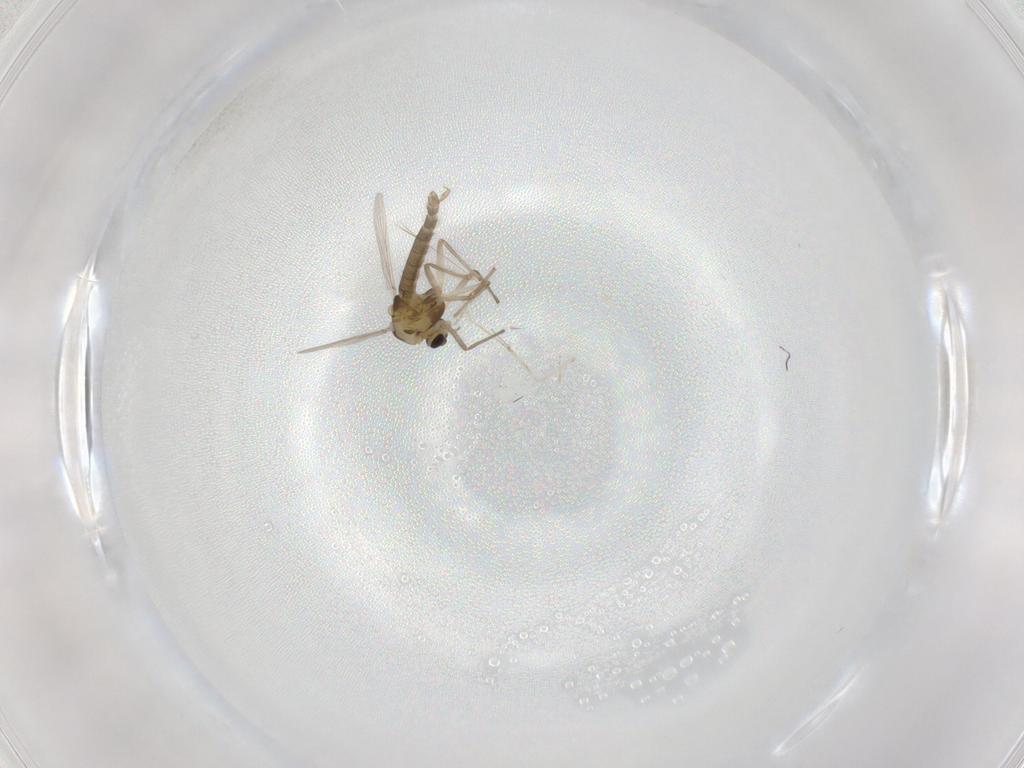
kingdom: Animalia
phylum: Arthropoda
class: Insecta
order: Diptera
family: Chironomidae
